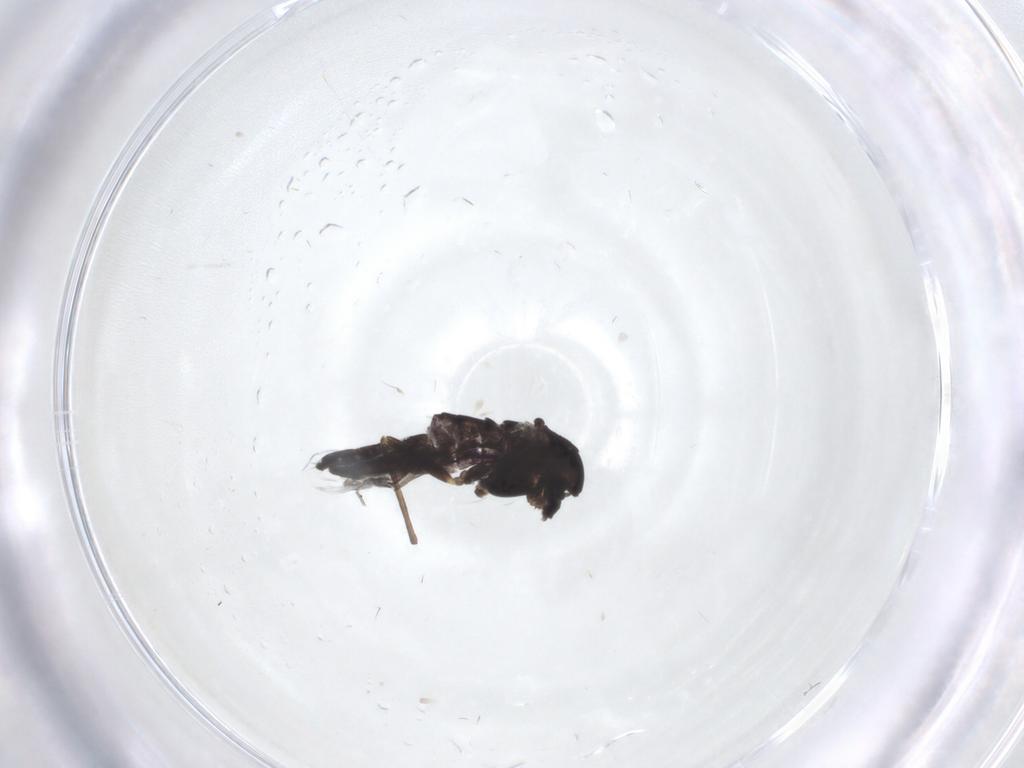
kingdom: Animalia
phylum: Arthropoda
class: Insecta
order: Diptera
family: Chironomidae
